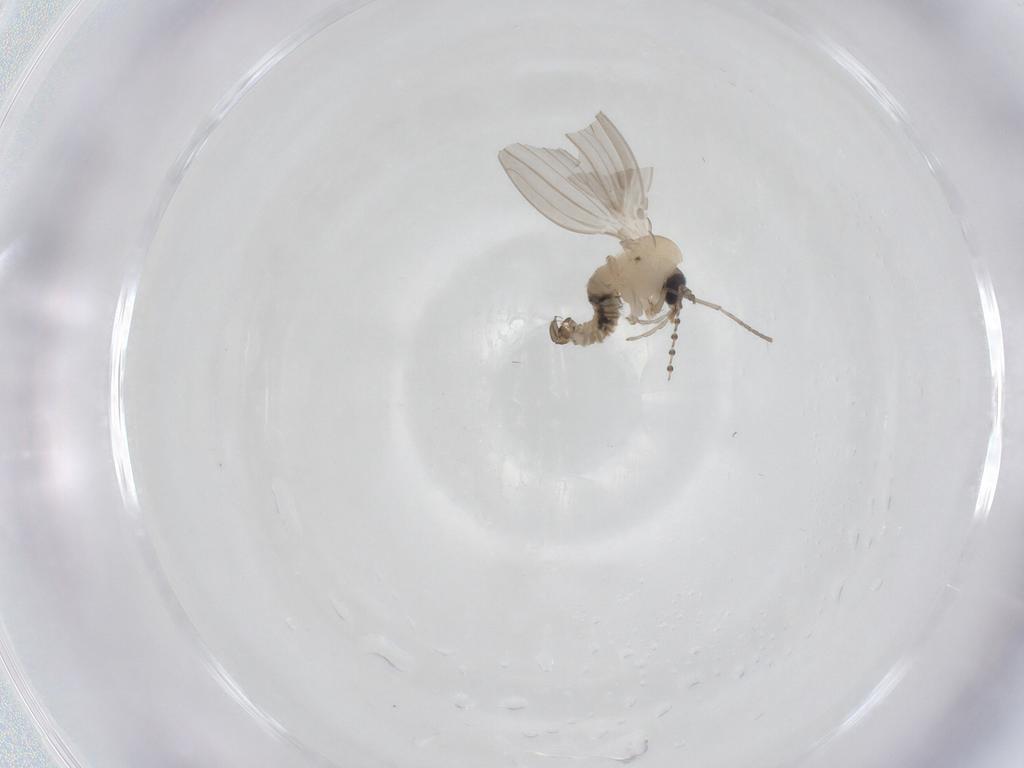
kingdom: Animalia
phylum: Arthropoda
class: Insecta
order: Diptera
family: Psychodidae
